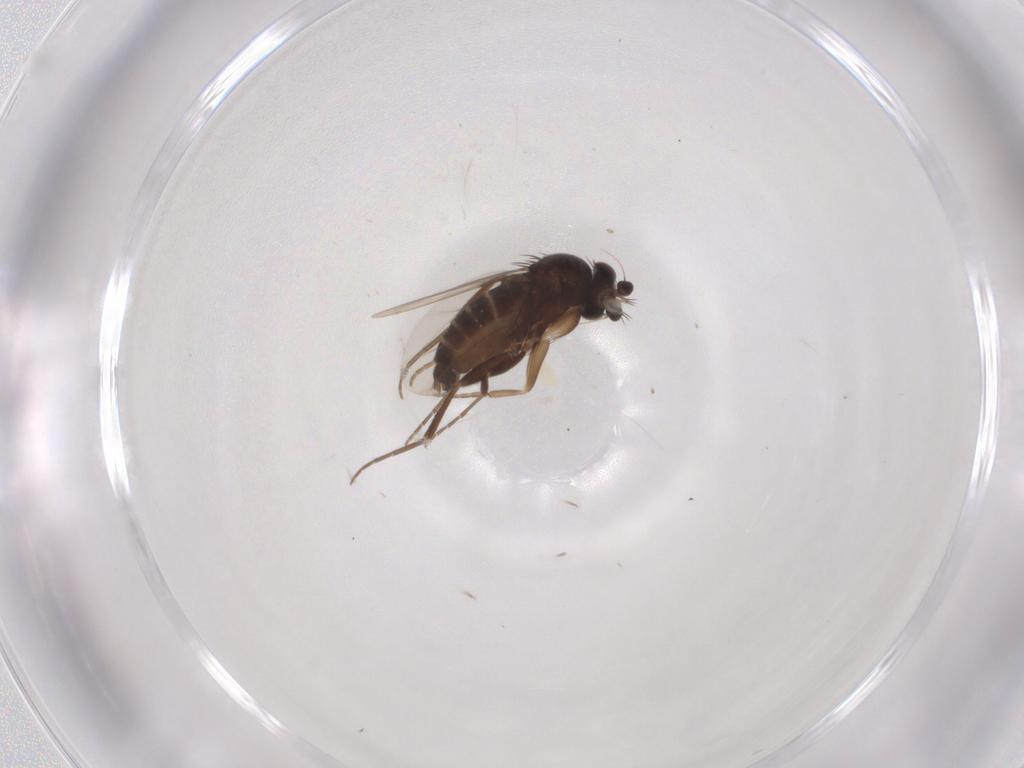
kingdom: Animalia
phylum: Arthropoda
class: Insecta
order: Diptera
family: Phoridae
